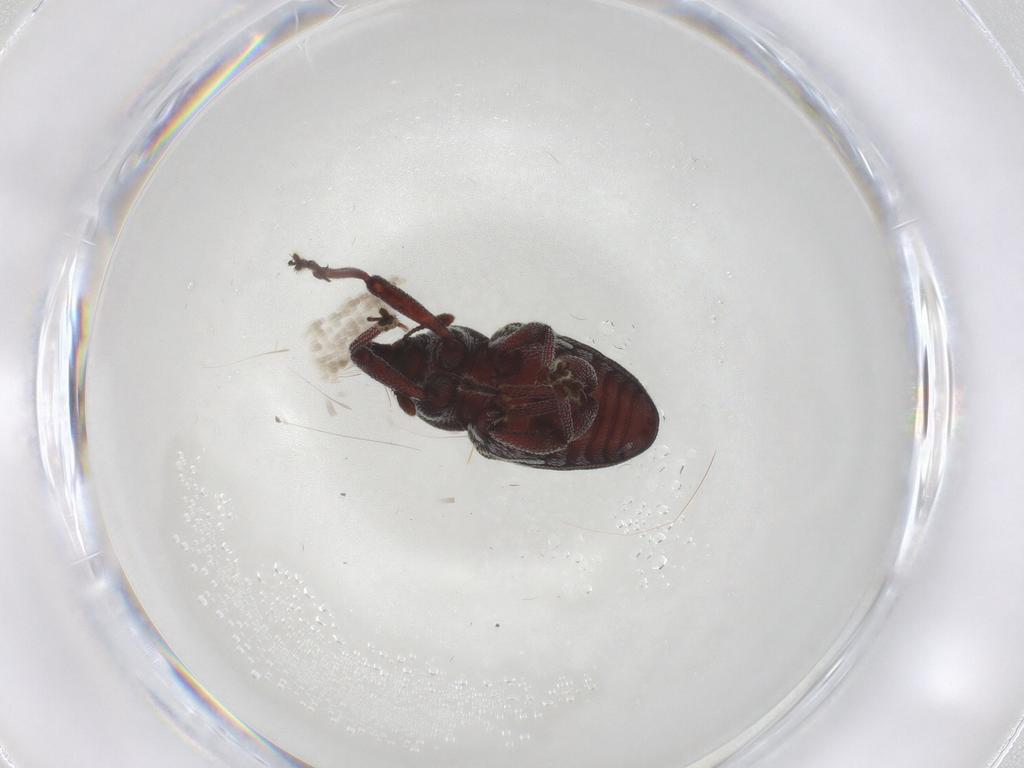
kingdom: Animalia
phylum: Arthropoda
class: Insecta
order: Coleoptera
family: Curculionidae
